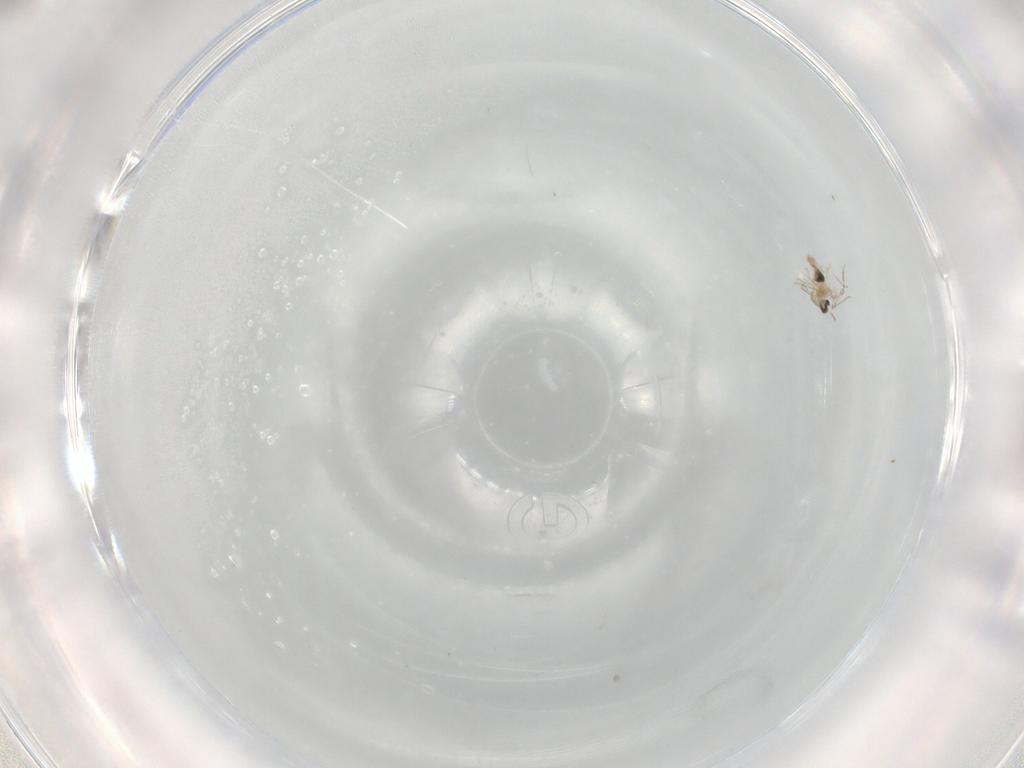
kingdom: Animalia
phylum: Arthropoda
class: Insecta
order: Diptera
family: Cecidomyiidae
